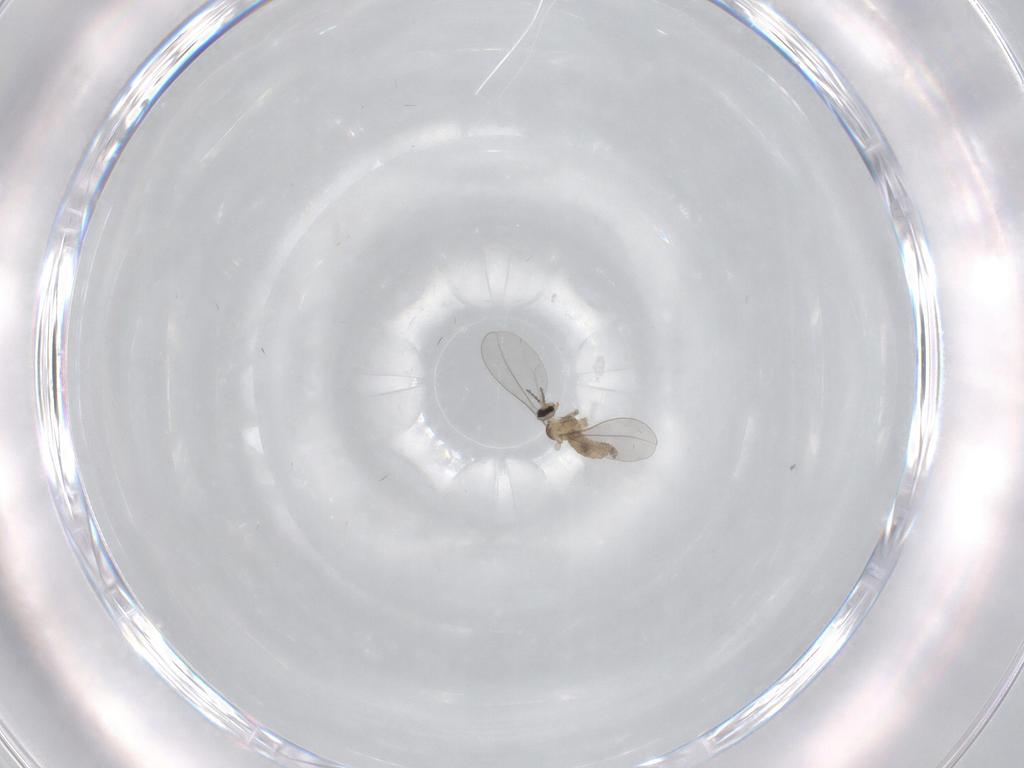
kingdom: Animalia
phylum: Arthropoda
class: Insecta
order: Diptera
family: Cecidomyiidae
